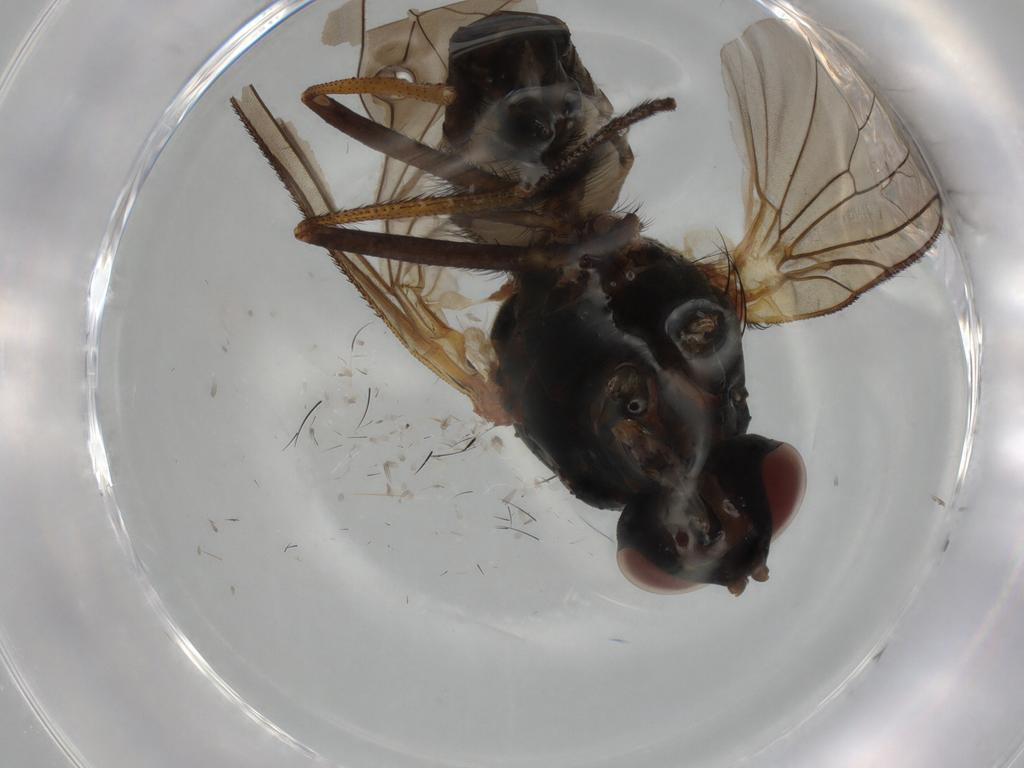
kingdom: Animalia
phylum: Arthropoda
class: Insecta
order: Diptera
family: Anthomyiidae
